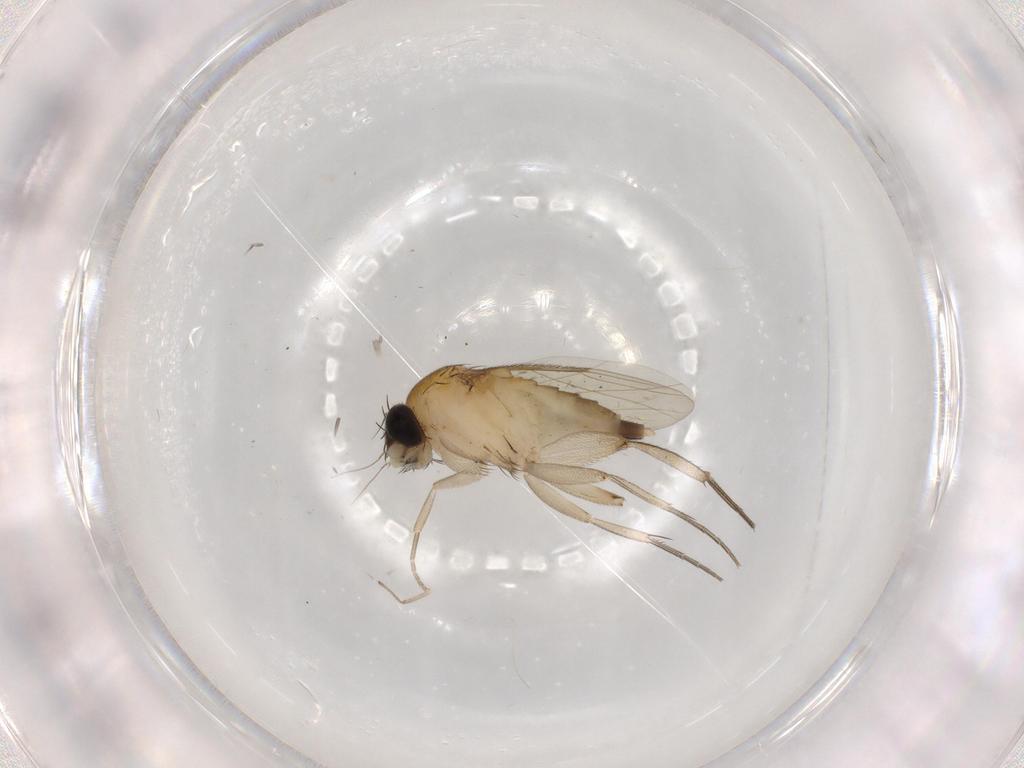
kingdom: Animalia
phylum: Arthropoda
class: Insecta
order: Diptera
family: Phoridae
